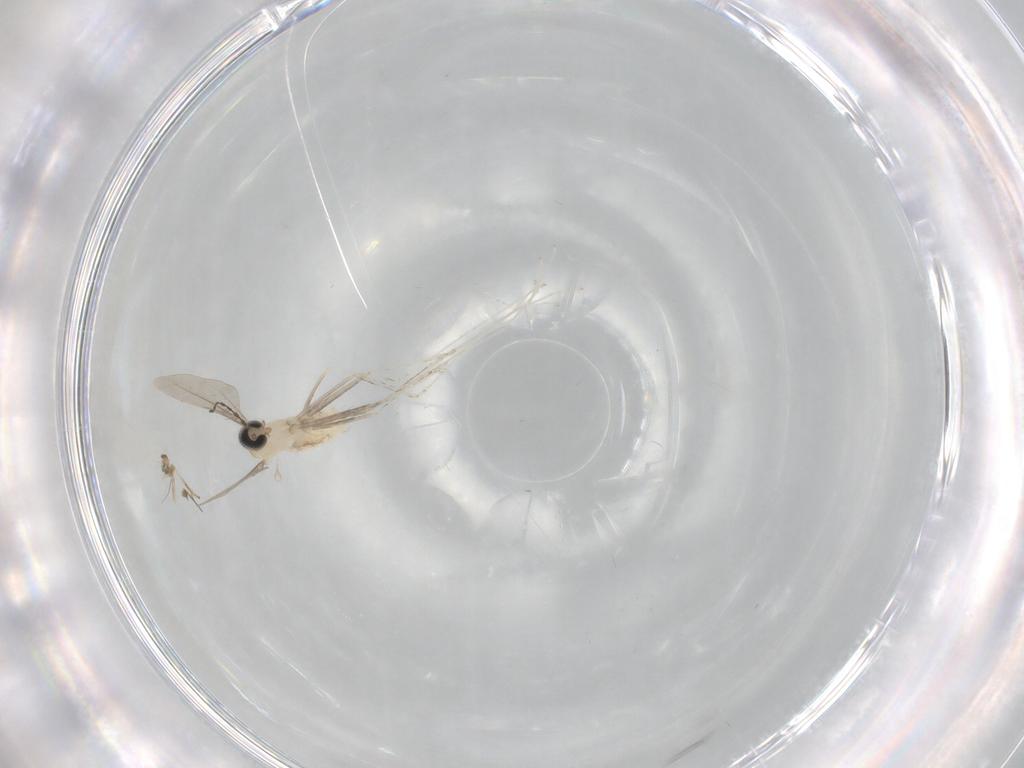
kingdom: Animalia
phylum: Arthropoda
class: Insecta
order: Diptera
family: Cecidomyiidae
